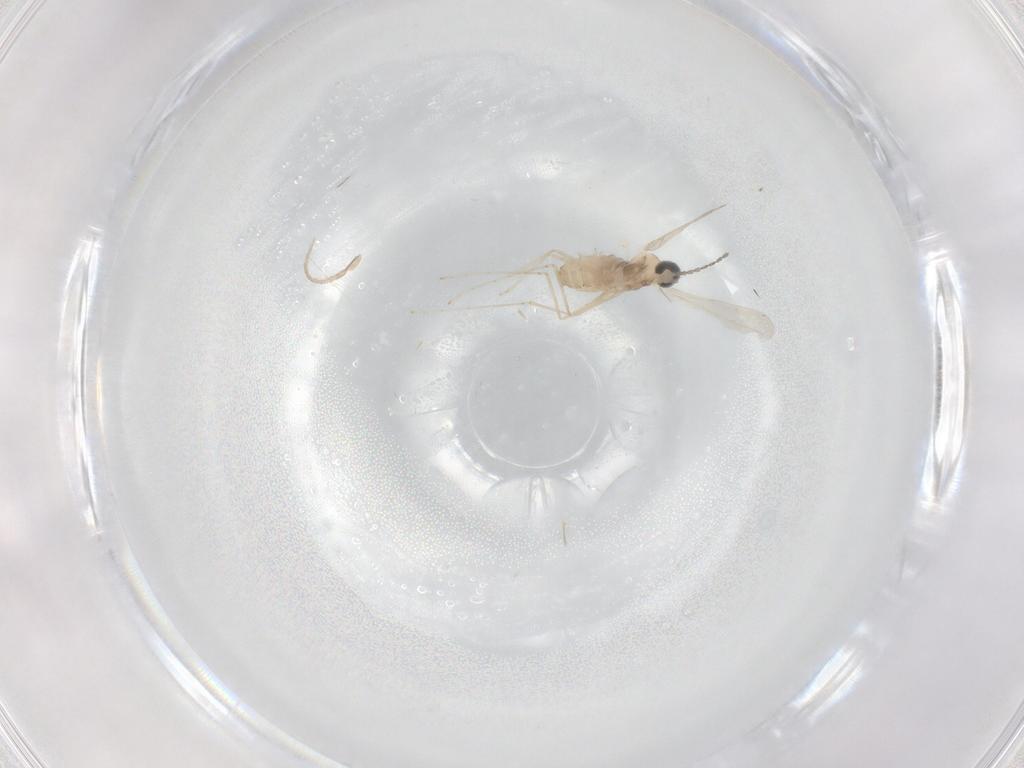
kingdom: Animalia
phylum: Arthropoda
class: Insecta
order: Diptera
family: Cecidomyiidae
